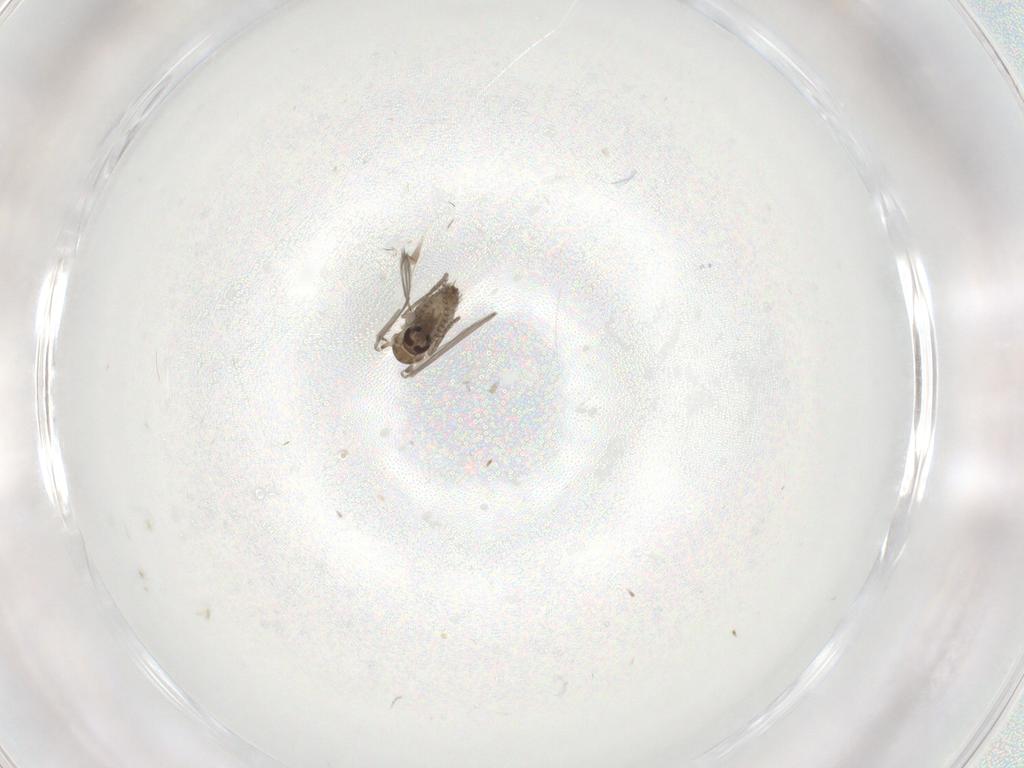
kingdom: Animalia
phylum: Arthropoda
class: Insecta
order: Diptera
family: Psychodidae
